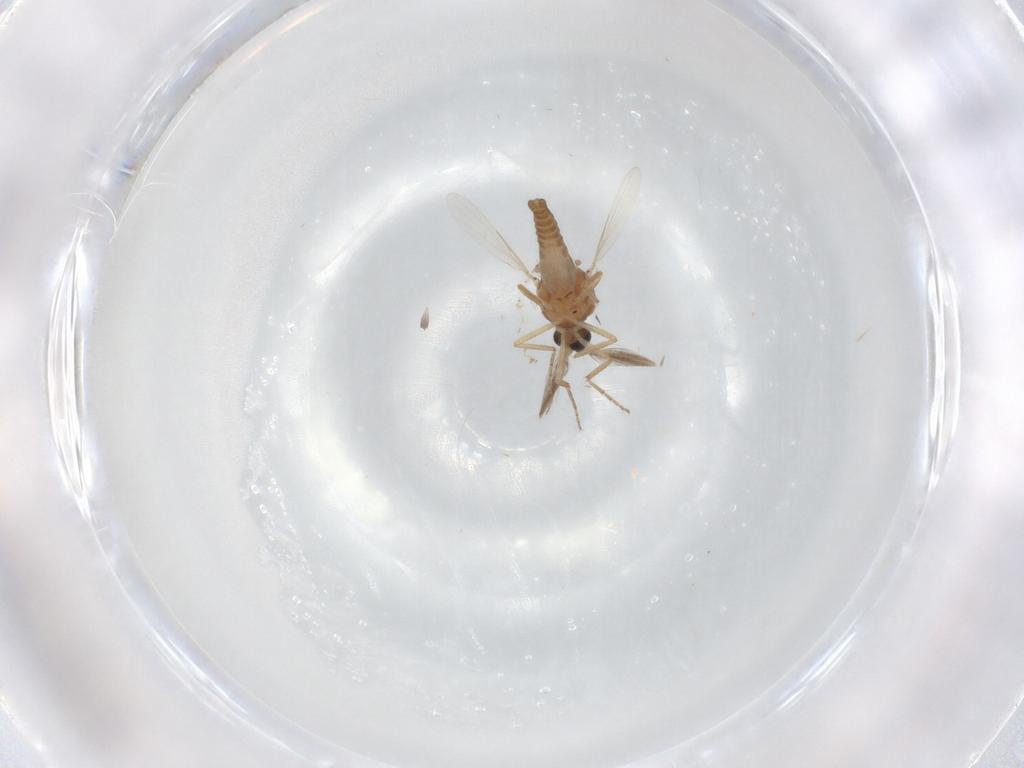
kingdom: Animalia
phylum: Arthropoda
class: Insecta
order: Diptera
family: Ceratopogonidae
